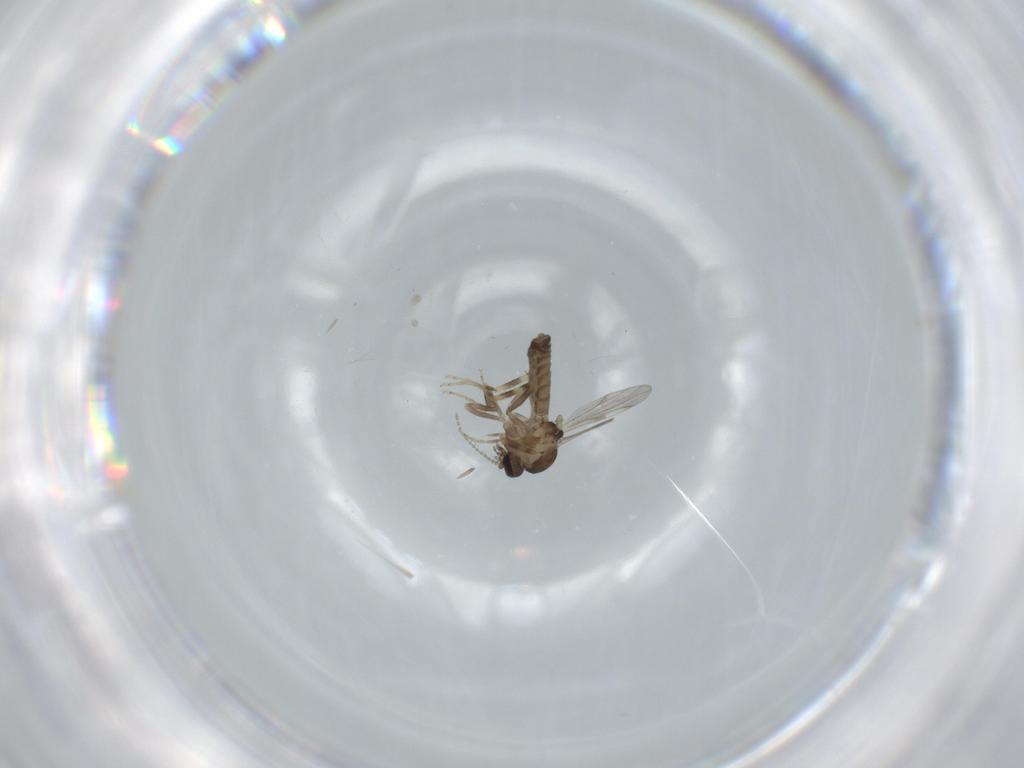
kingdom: Animalia
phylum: Arthropoda
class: Insecta
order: Diptera
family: Ceratopogonidae
